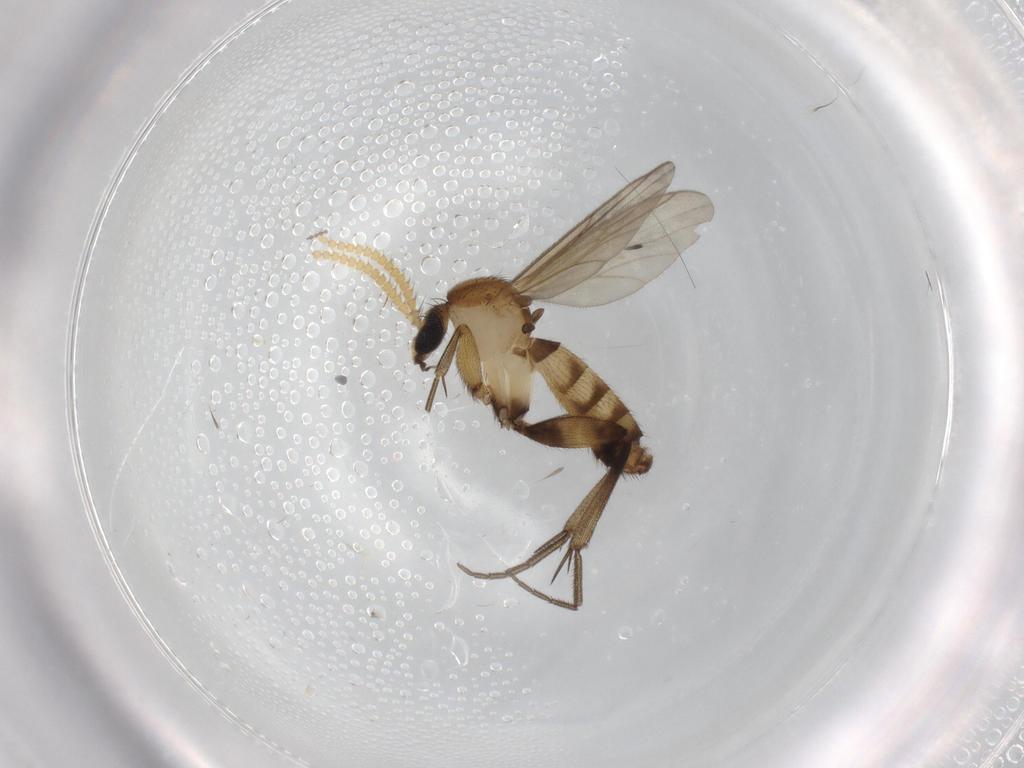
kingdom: Animalia
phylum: Arthropoda
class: Insecta
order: Diptera
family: Mycetophilidae
